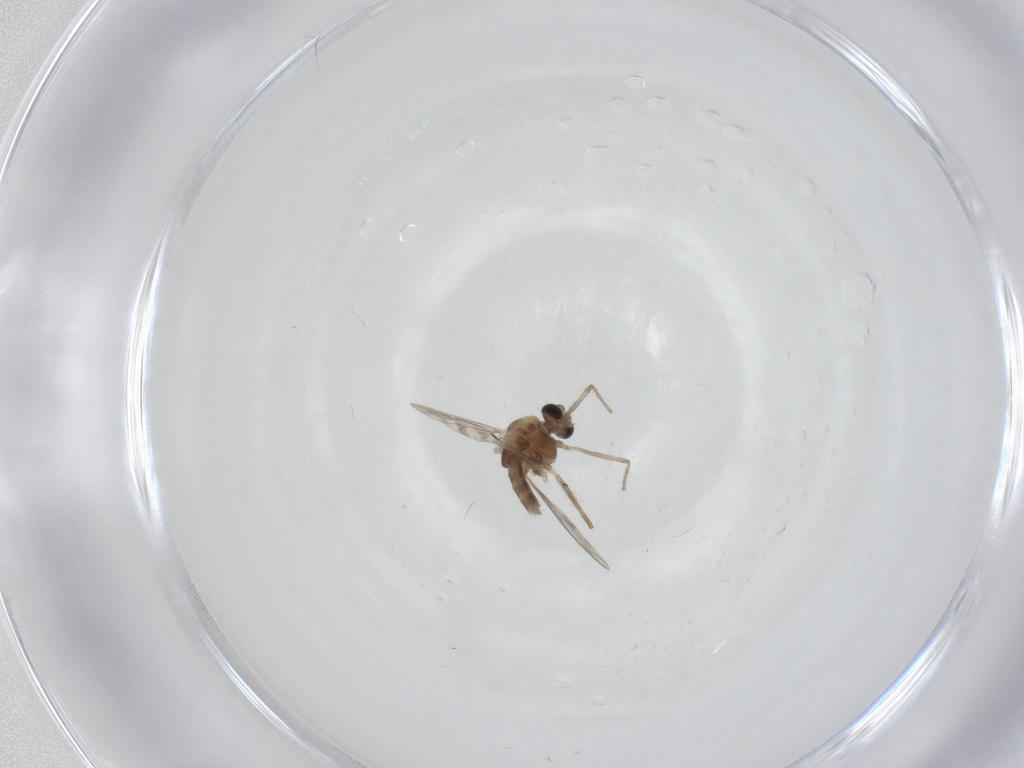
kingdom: Animalia
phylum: Arthropoda
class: Insecta
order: Diptera
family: Chironomidae
